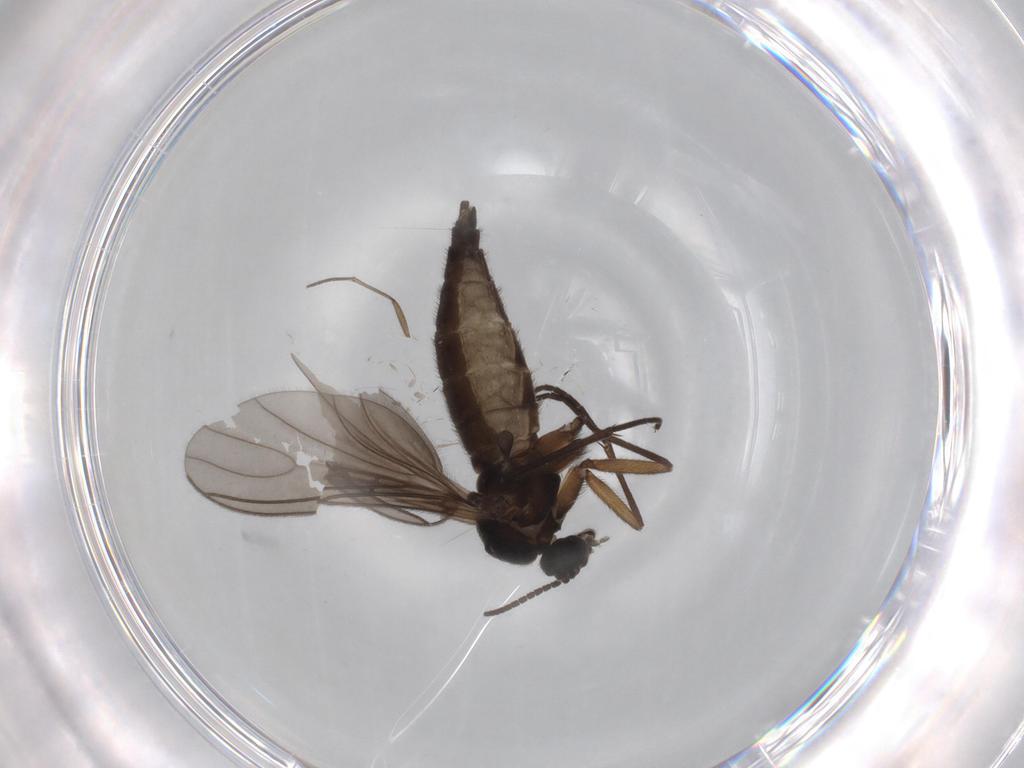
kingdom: Animalia
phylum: Arthropoda
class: Insecta
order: Diptera
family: Sciaridae
